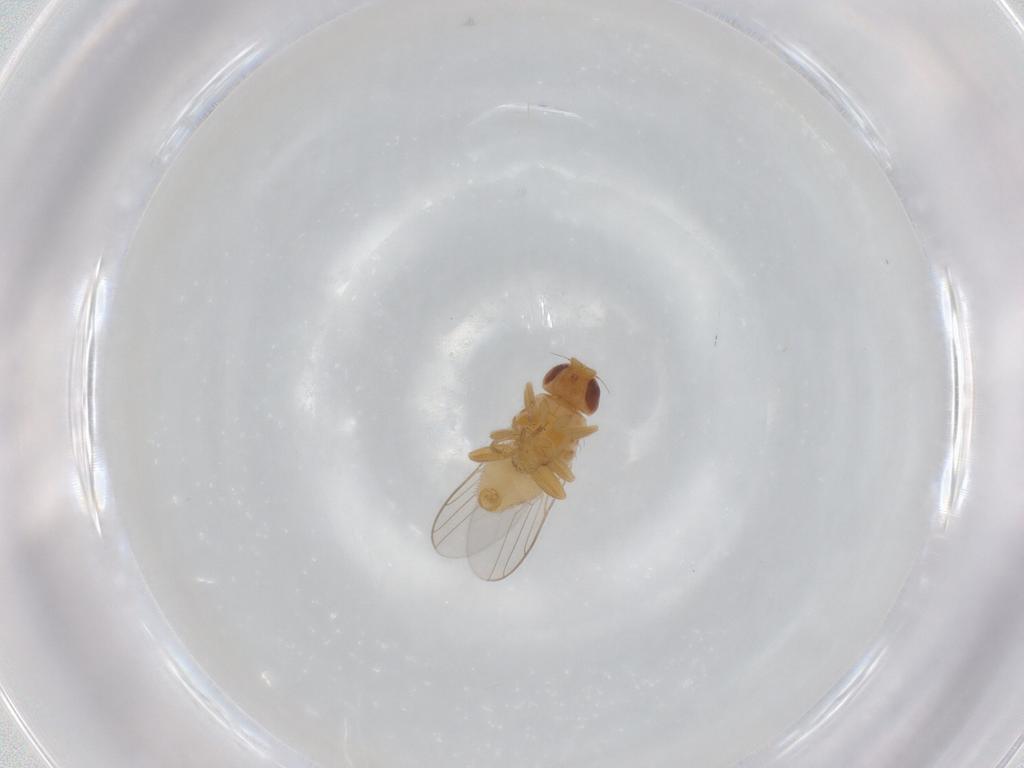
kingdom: Animalia
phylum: Arthropoda
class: Insecta
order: Diptera
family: Chloropidae
